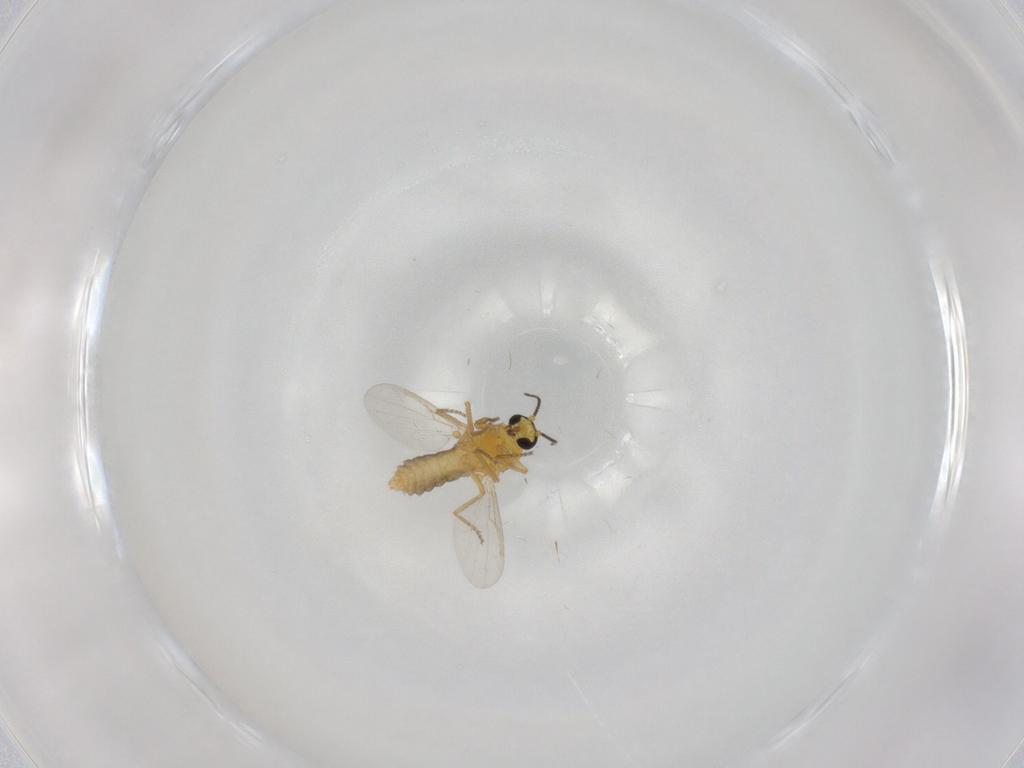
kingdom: Animalia
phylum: Arthropoda
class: Insecta
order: Diptera
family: Ceratopogonidae
